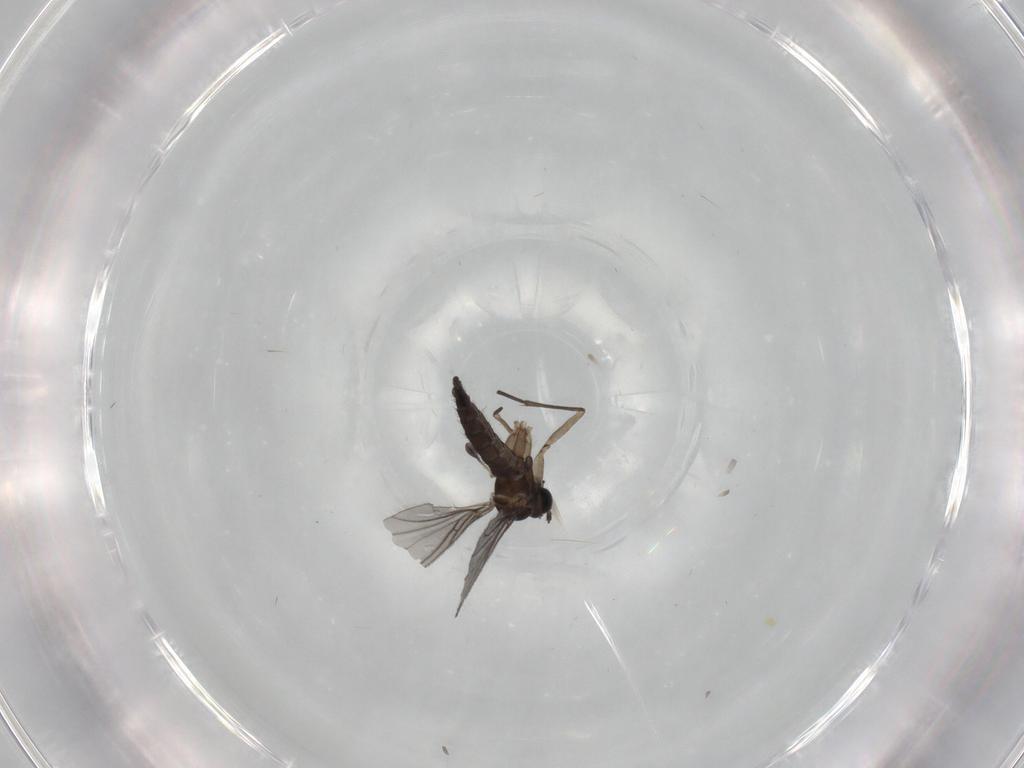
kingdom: Animalia
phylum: Arthropoda
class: Insecta
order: Diptera
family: Sciaridae
